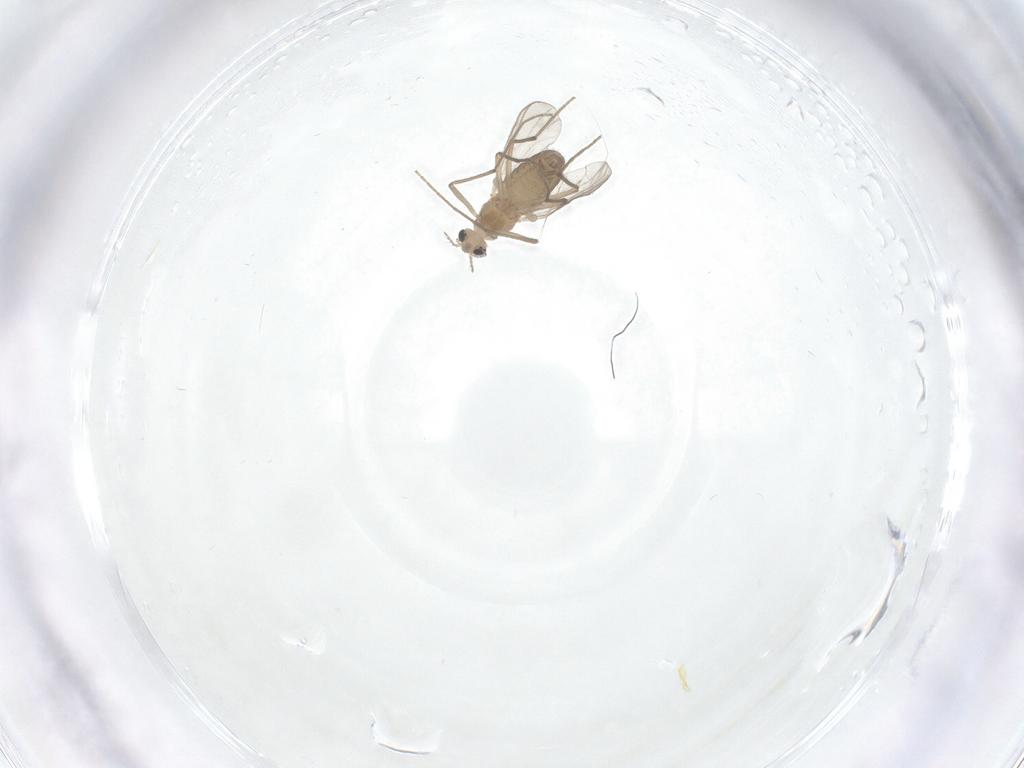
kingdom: Animalia
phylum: Arthropoda
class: Insecta
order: Diptera
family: Chironomidae
